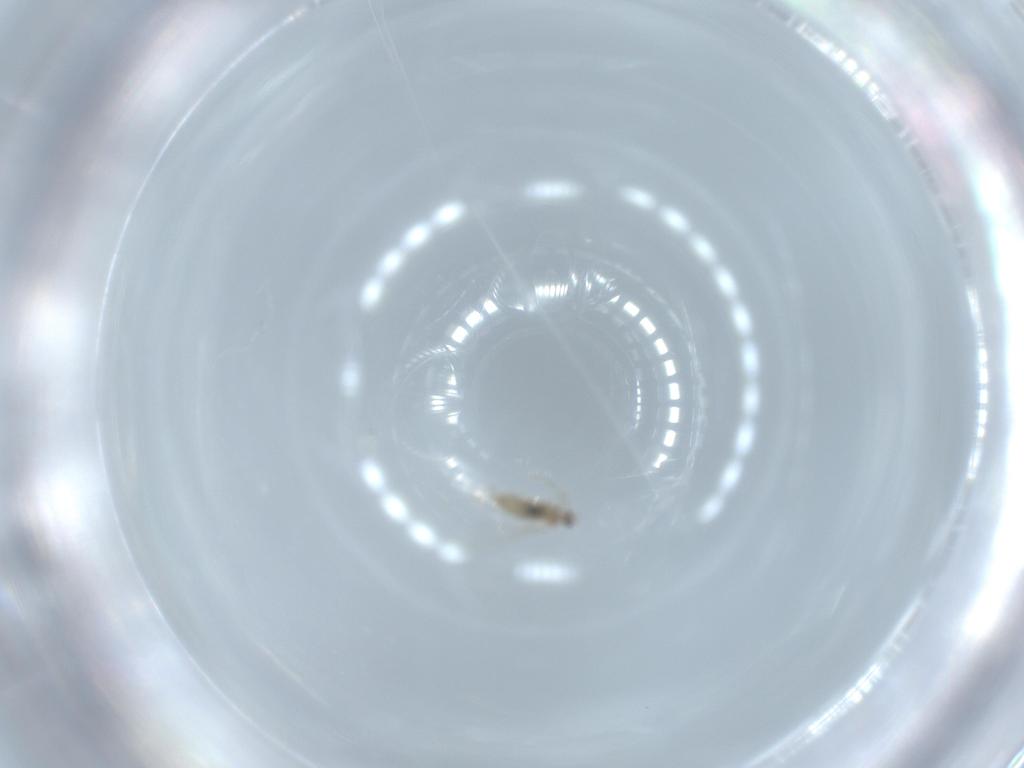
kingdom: Animalia
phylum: Arthropoda
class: Insecta
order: Diptera
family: Cecidomyiidae
